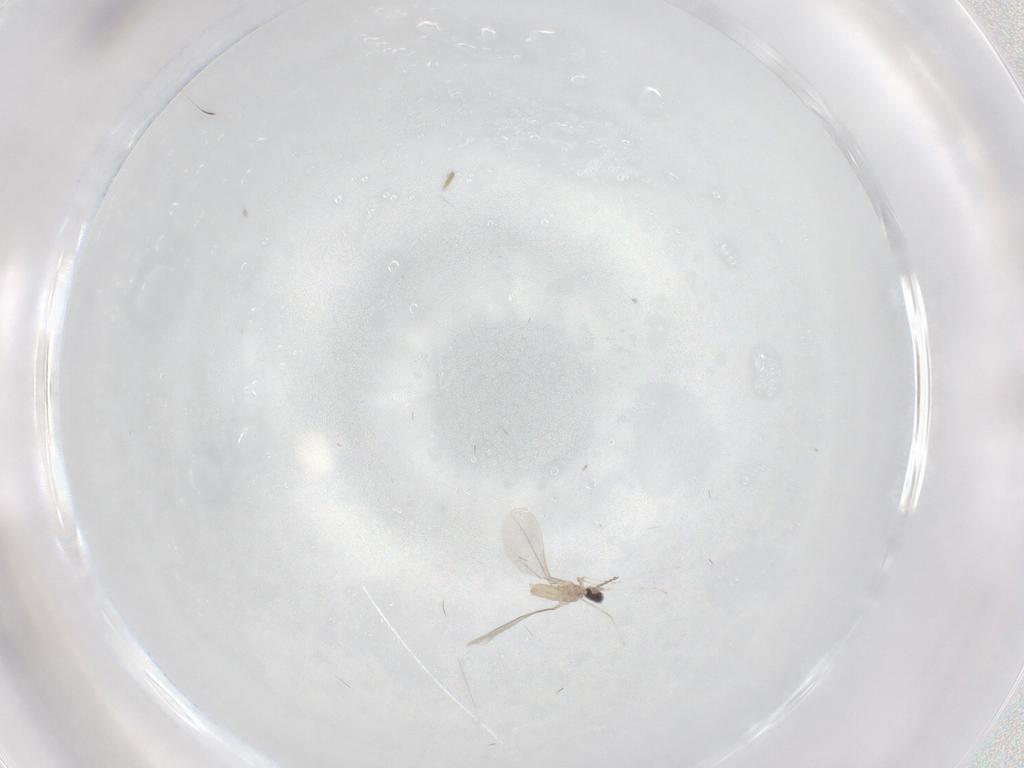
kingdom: Animalia
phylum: Arthropoda
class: Insecta
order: Diptera
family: Cecidomyiidae
